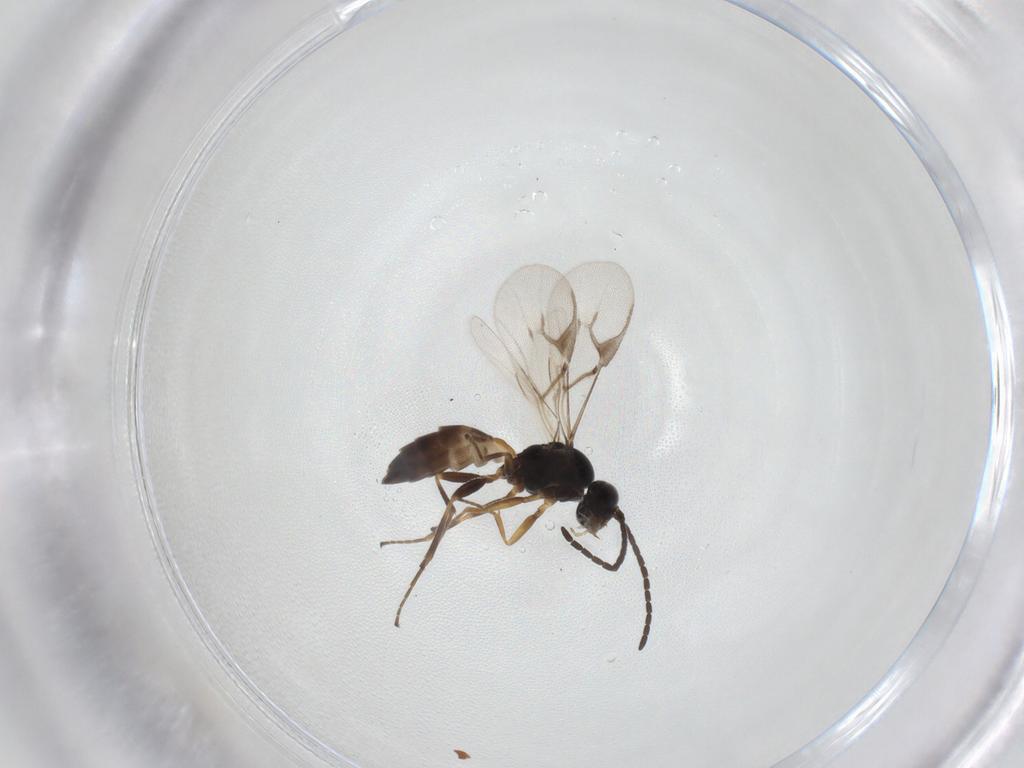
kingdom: Animalia
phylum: Arthropoda
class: Insecta
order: Hymenoptera
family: Braconidae
